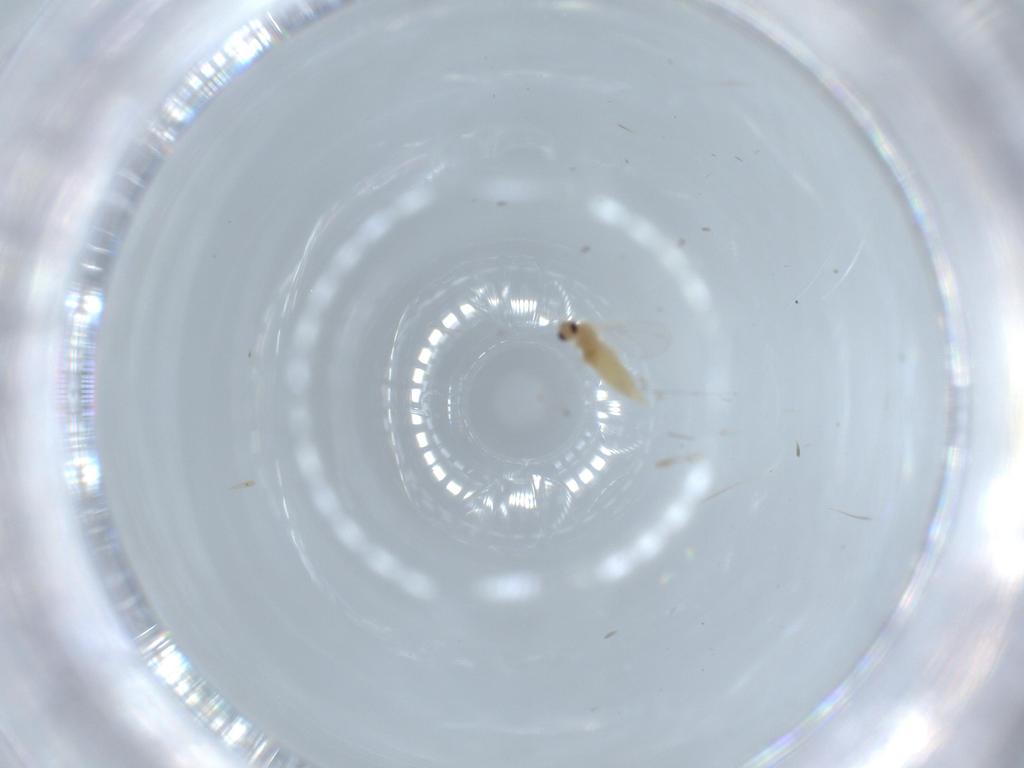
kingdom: Animalia
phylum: Arthropoda
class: Insecta
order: Diptera
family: Mycetophilidae
